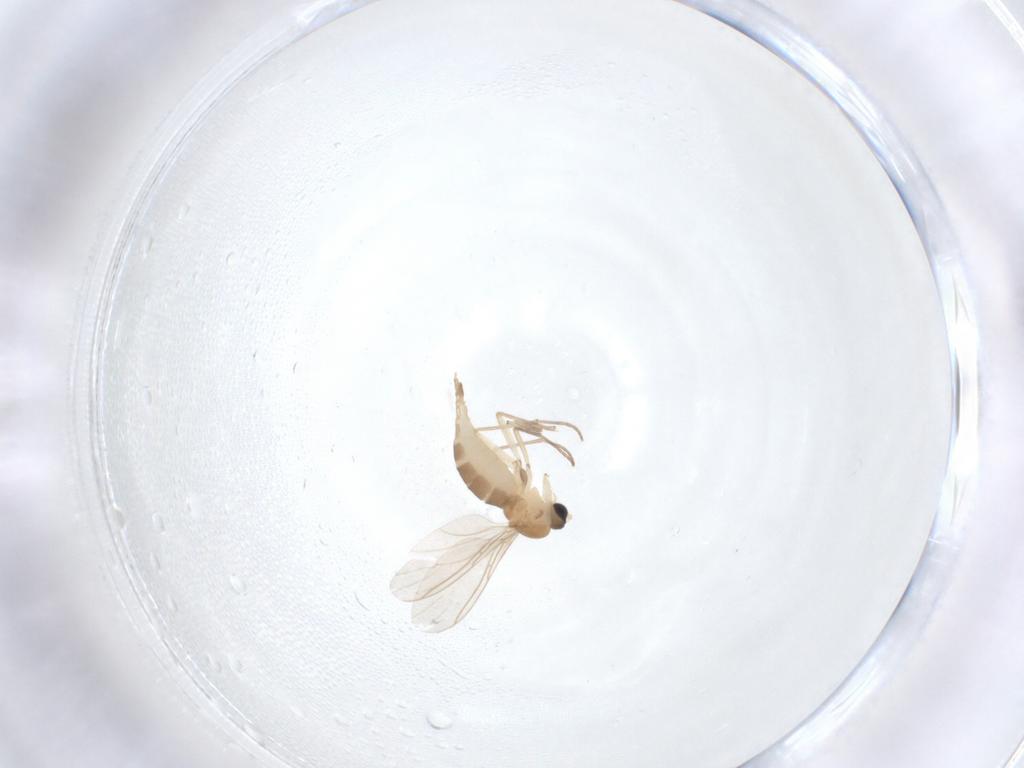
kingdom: Animalia
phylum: Arthropoda
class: Insecta
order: Diptera
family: Sciaridae
